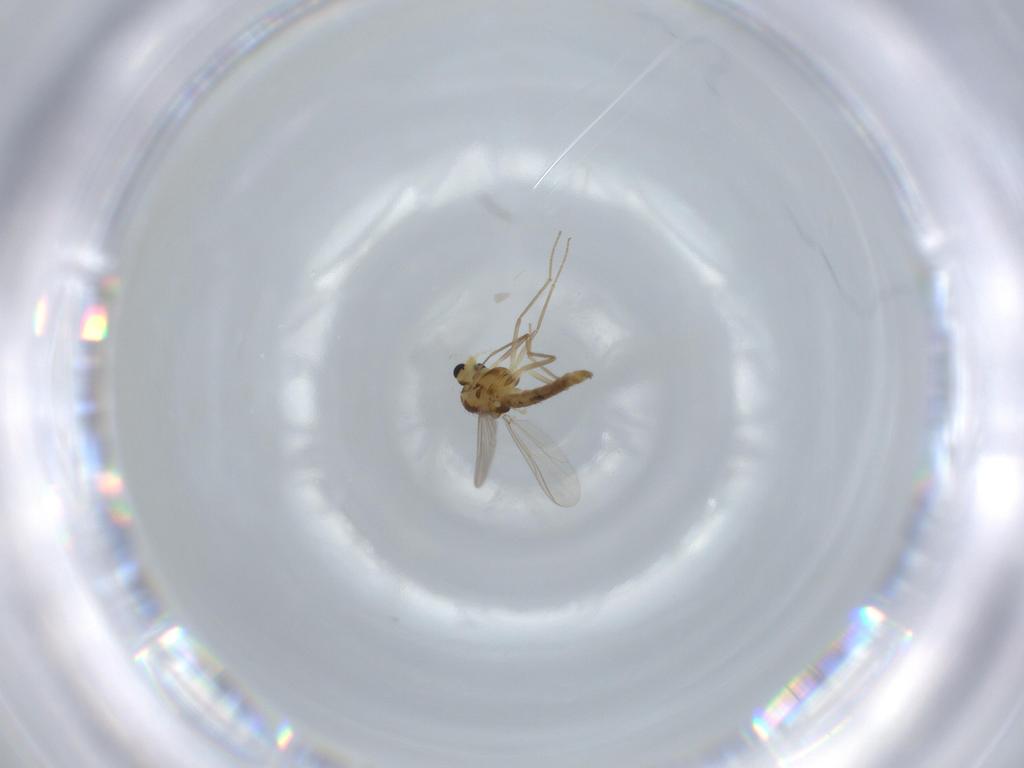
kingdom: Animalia
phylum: Arthropoda
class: Insecta
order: Diptera
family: Chironomidae
